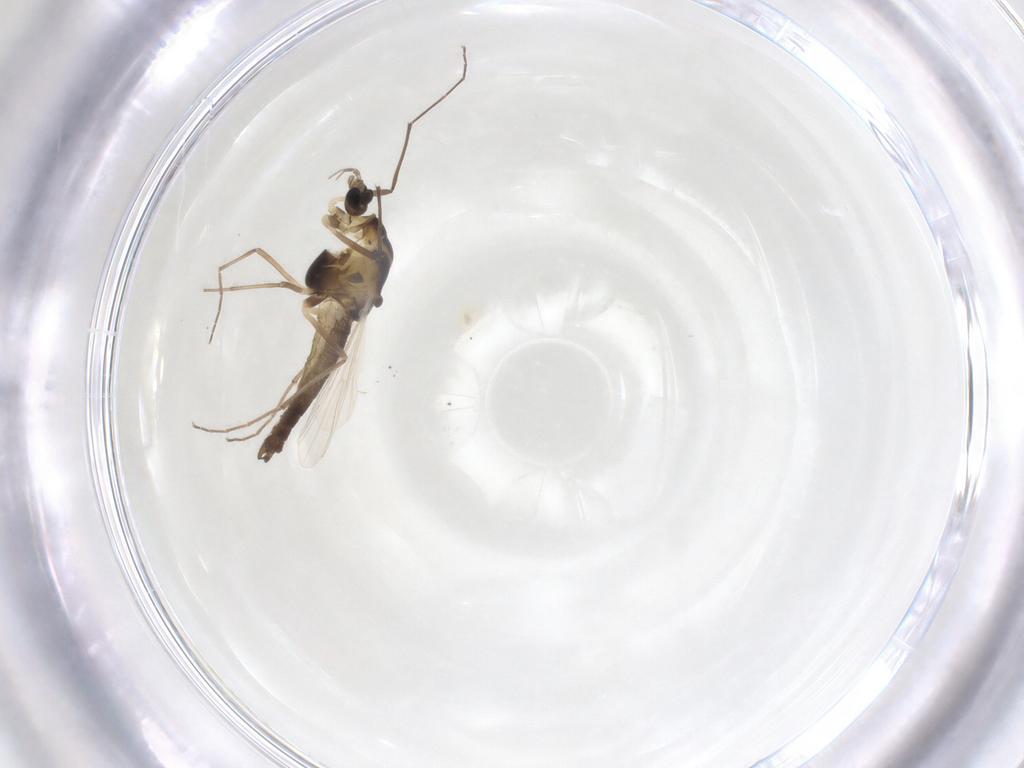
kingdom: Animalia
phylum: Arthropoda
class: Insecta
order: Diptera
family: Chironomidae
